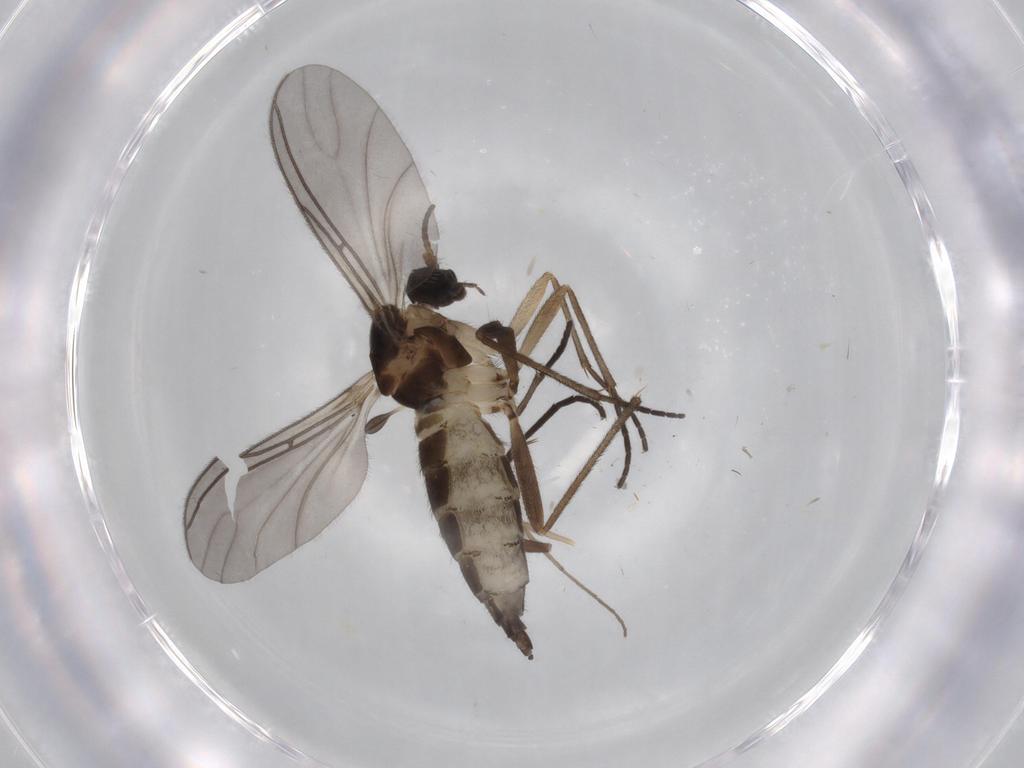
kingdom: Animalia
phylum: Arthropoda
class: Insecta
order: Diptera
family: Sciaridae
